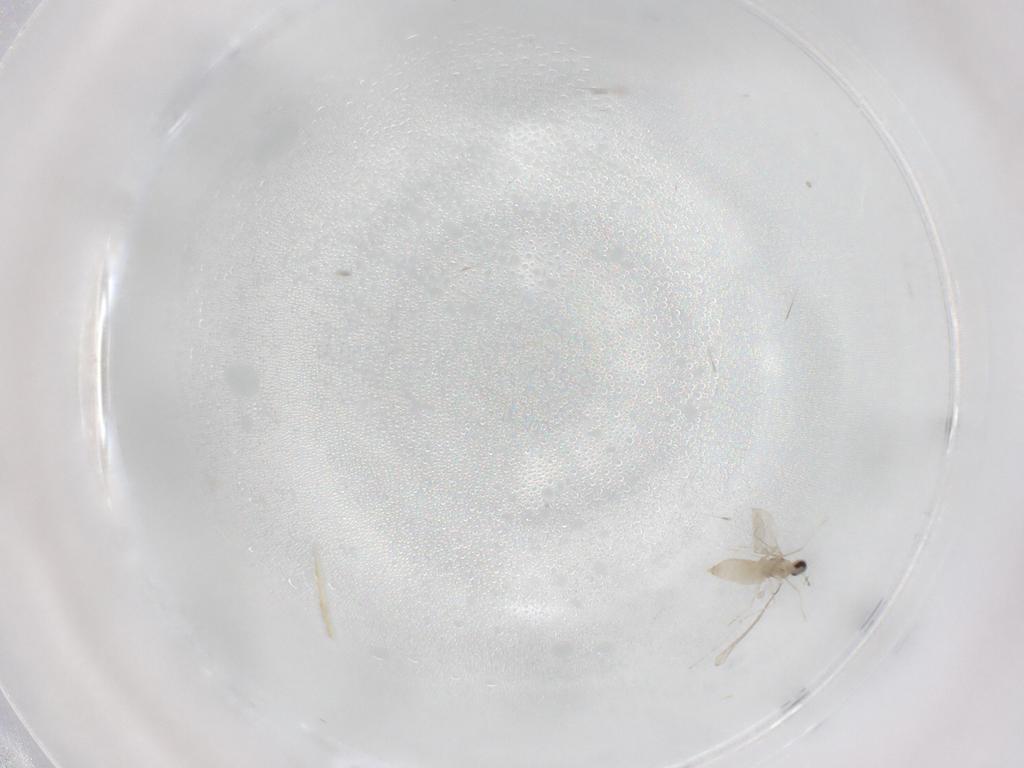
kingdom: Animalia
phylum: Arthropoda
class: Insecta
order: Diptera
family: Cecidomyiidae
